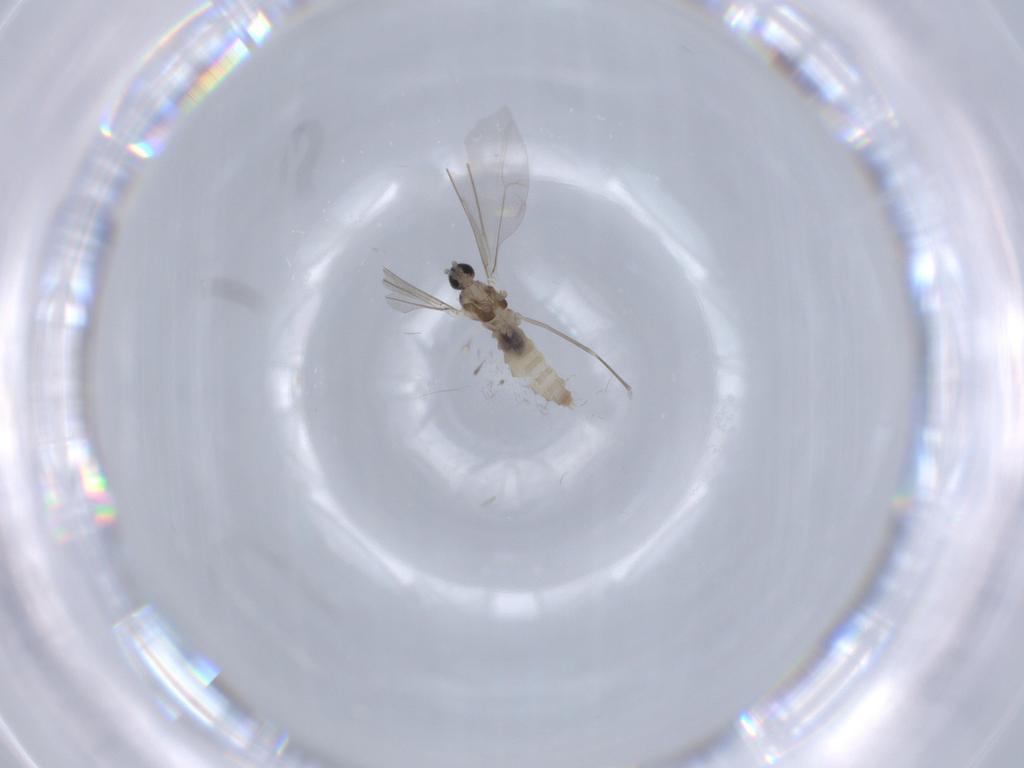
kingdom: Animalia
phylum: Arthropoda
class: Insecta
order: Diptera
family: Cecidomyiidae
